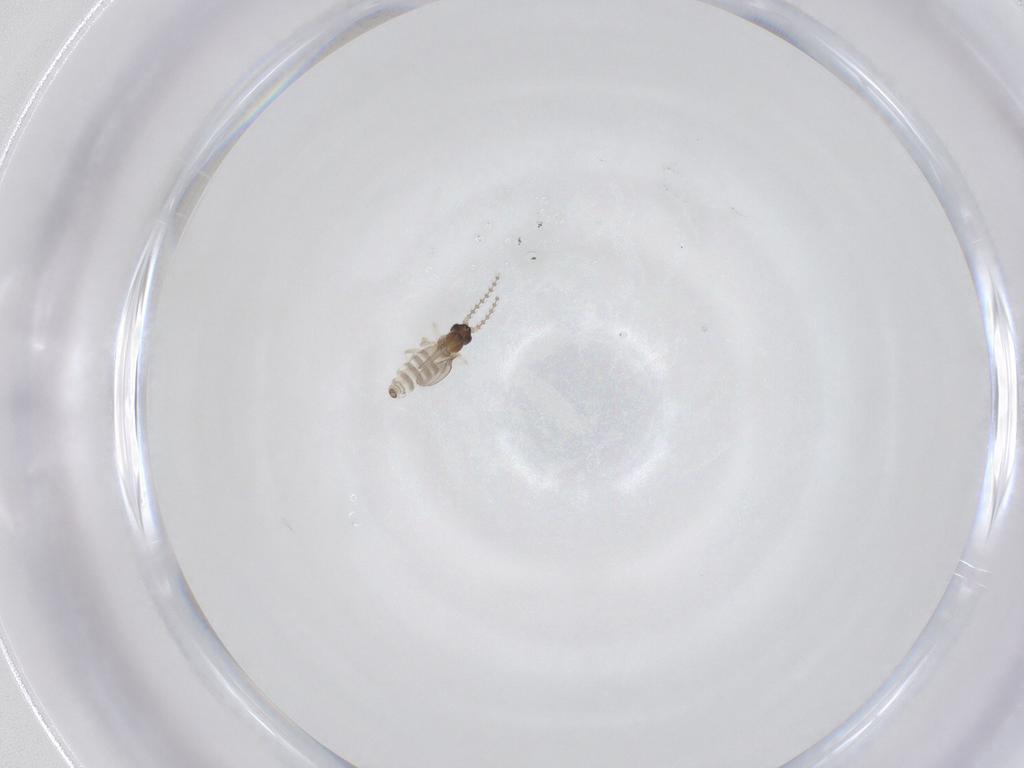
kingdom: Animalia
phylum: Arthropoda
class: Insecta
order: Diptera
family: Cecidomyiidae
